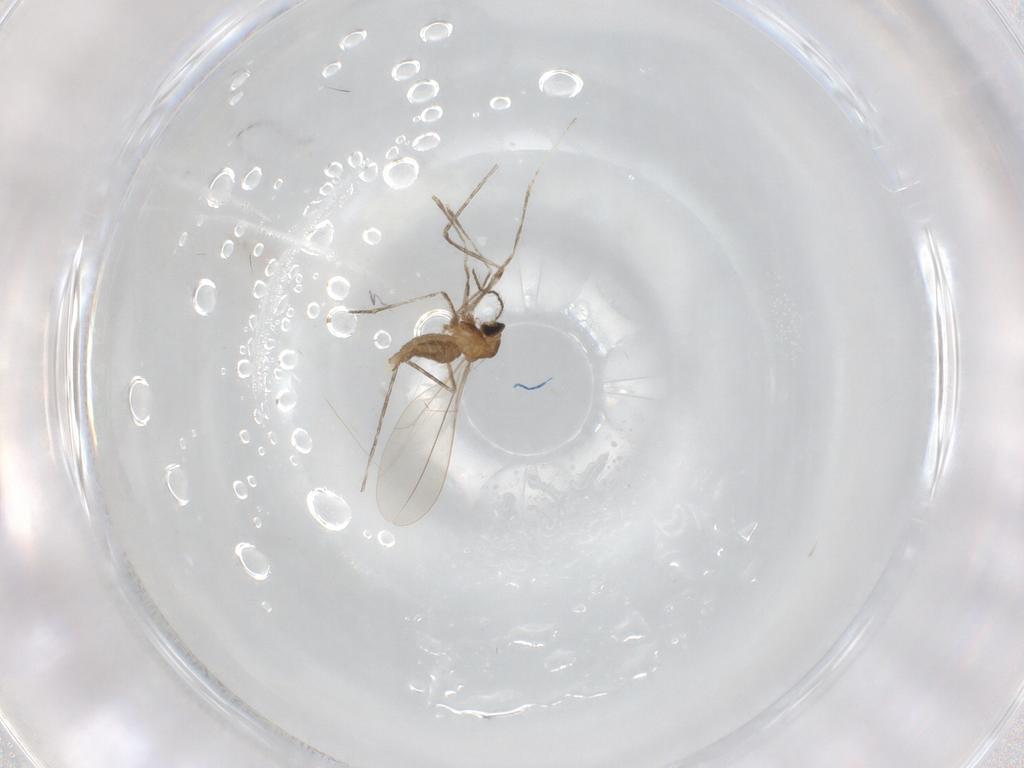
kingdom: Animalia
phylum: Arthropoda
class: Insecta
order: Diptera
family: Cecidomyiidae
